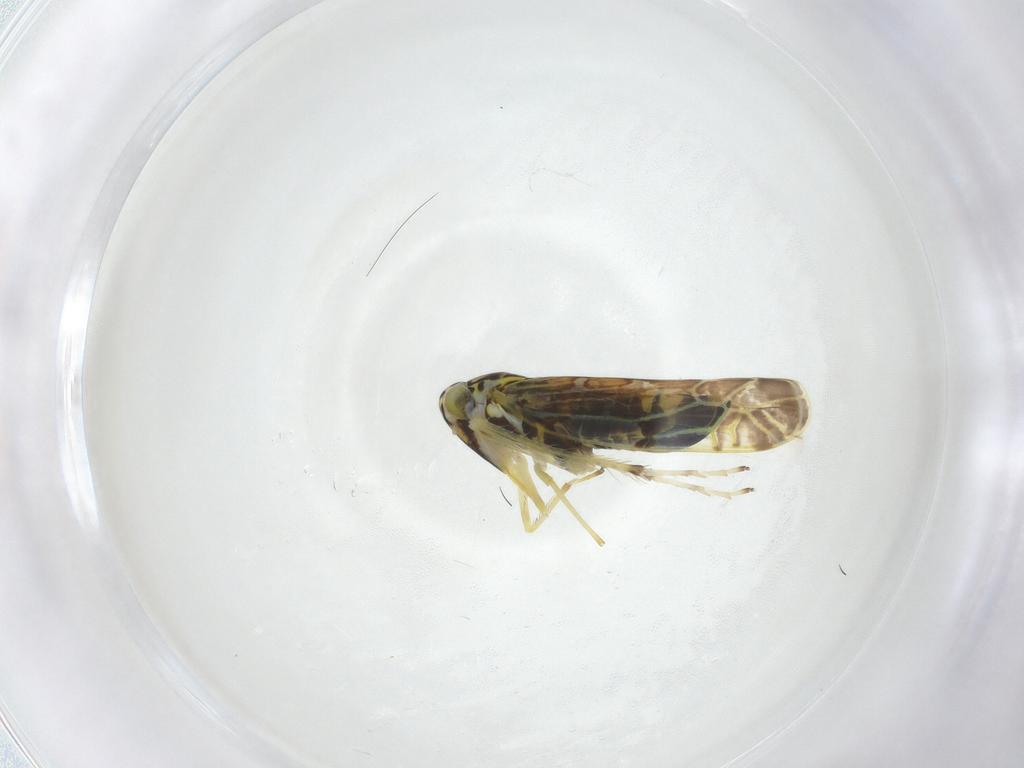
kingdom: Animalia
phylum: Arthropoda
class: Insecta
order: Hemiptera
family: Cicadellidae
